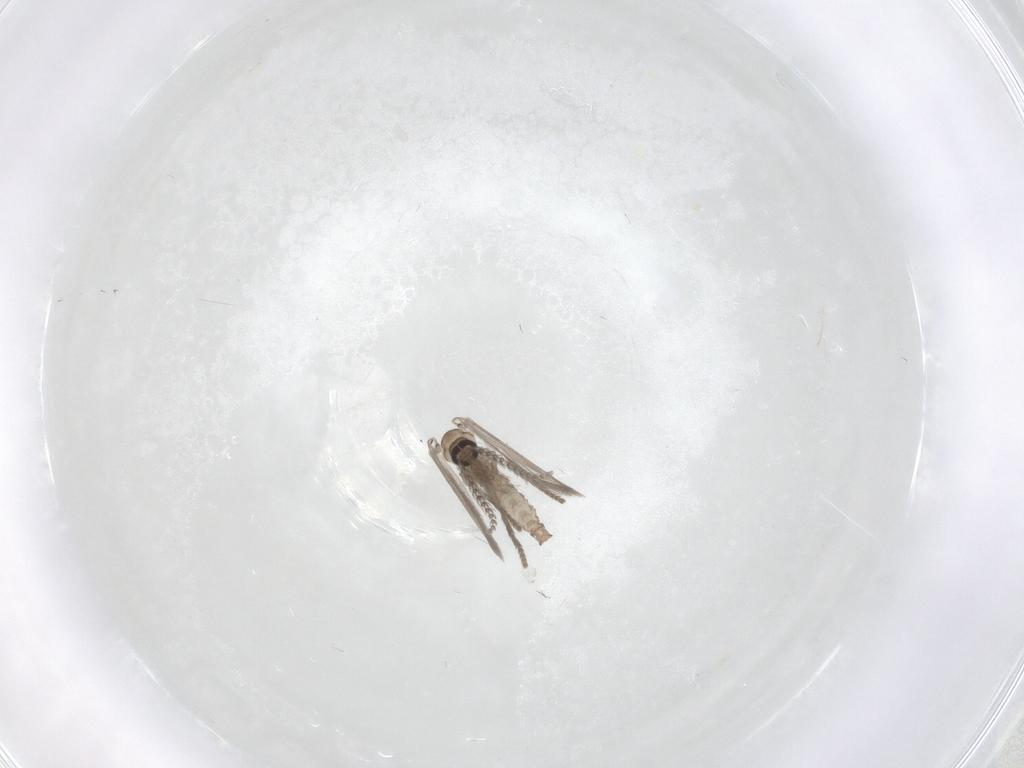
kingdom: Animalia
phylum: Arthropoda
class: Insecta
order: Diptera
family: Psychodidae
